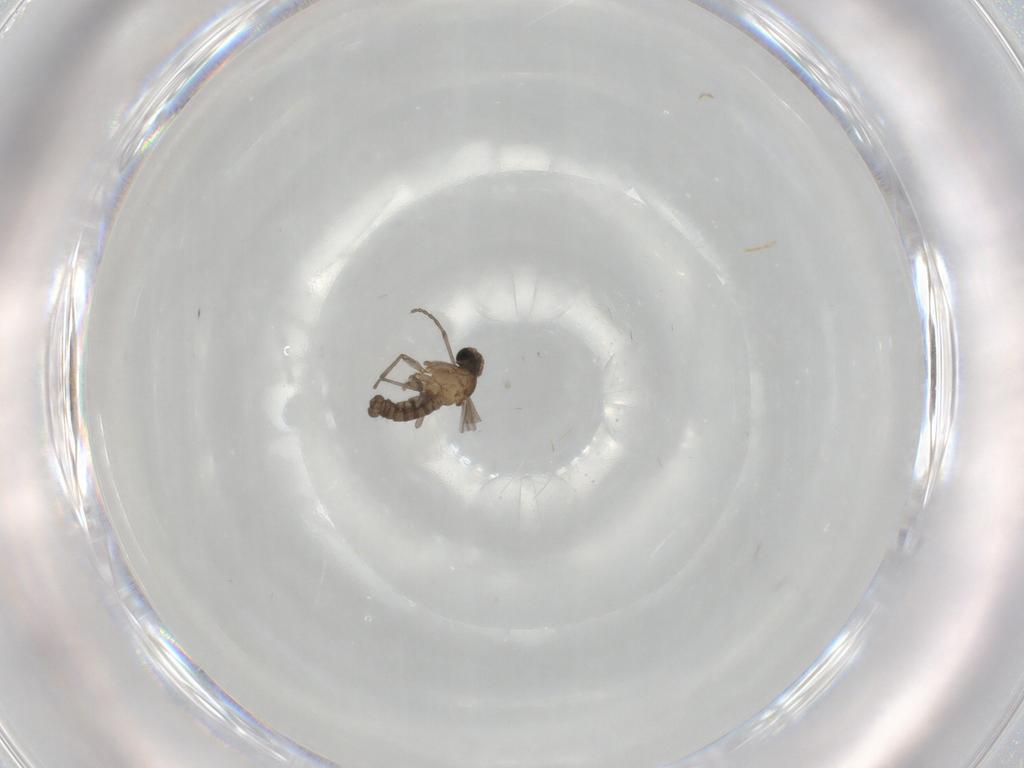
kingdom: Animalia
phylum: Arthropoda
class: Insecta
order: Diptera
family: Sciaridae
